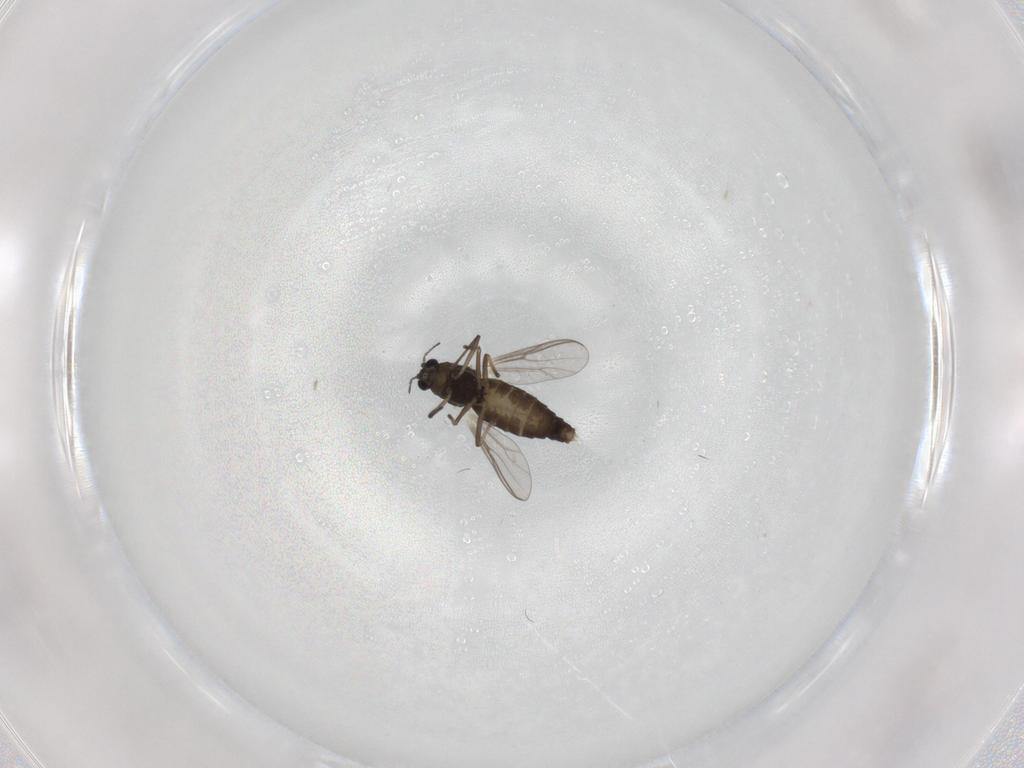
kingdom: Animalia
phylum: Arthropoda
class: Insecta
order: Diptera
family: Chironomidae
